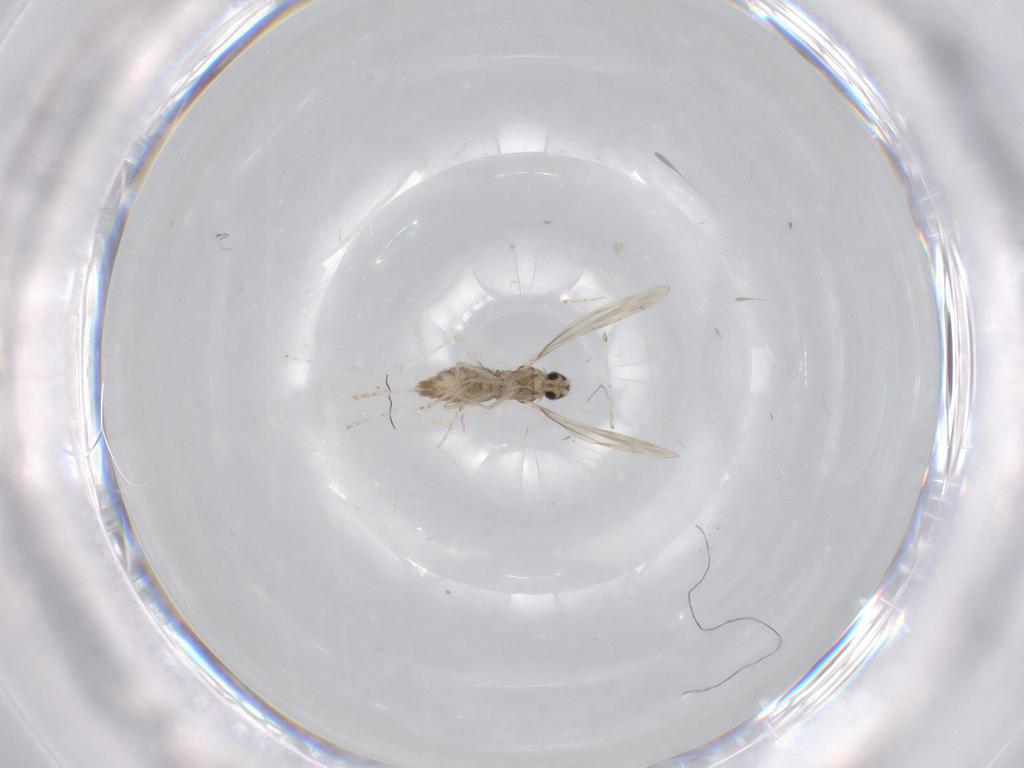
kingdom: Animalia
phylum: Arthropoda
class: Insecta
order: Diptera
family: Cecidomyiidae
